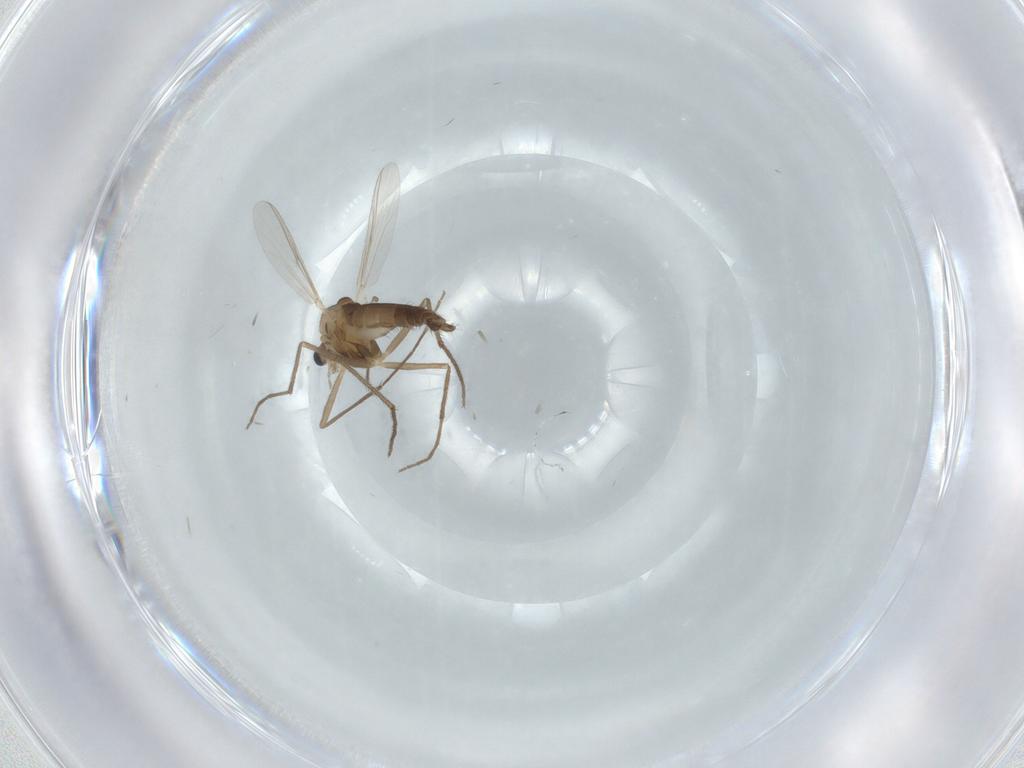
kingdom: Animalia
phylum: Arthropoda
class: Insecta
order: Diptera
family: Chironomidae
